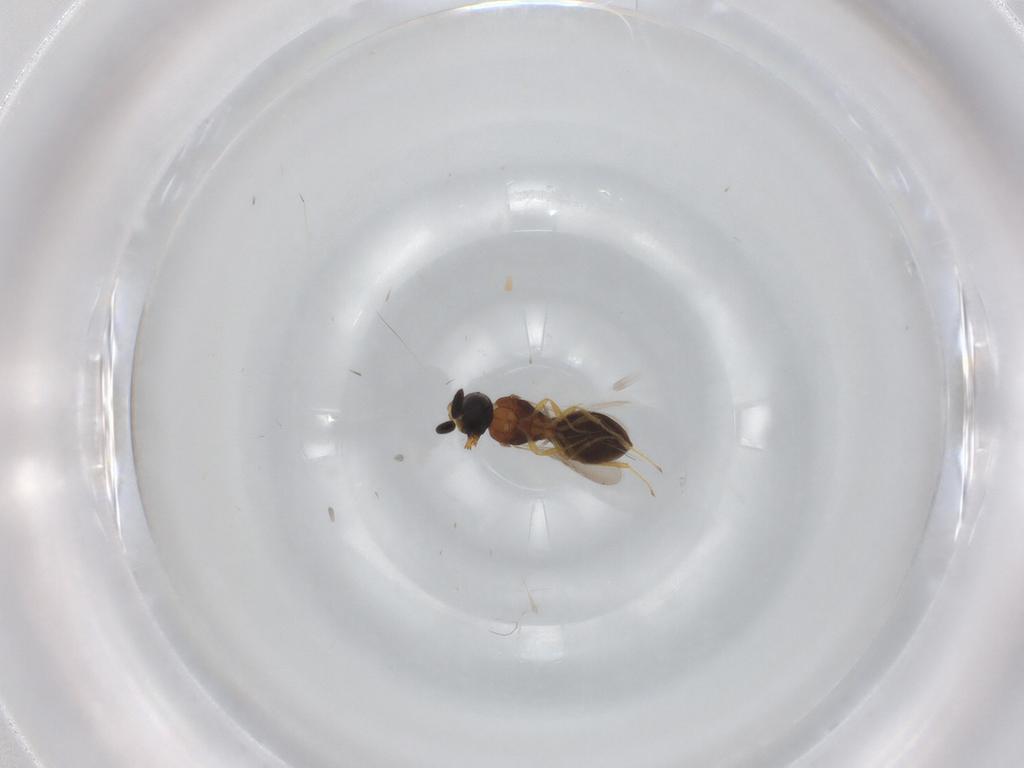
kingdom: Animalia
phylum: Arthropoda
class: Insecta
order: Hymenoptera
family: Scelionidae
